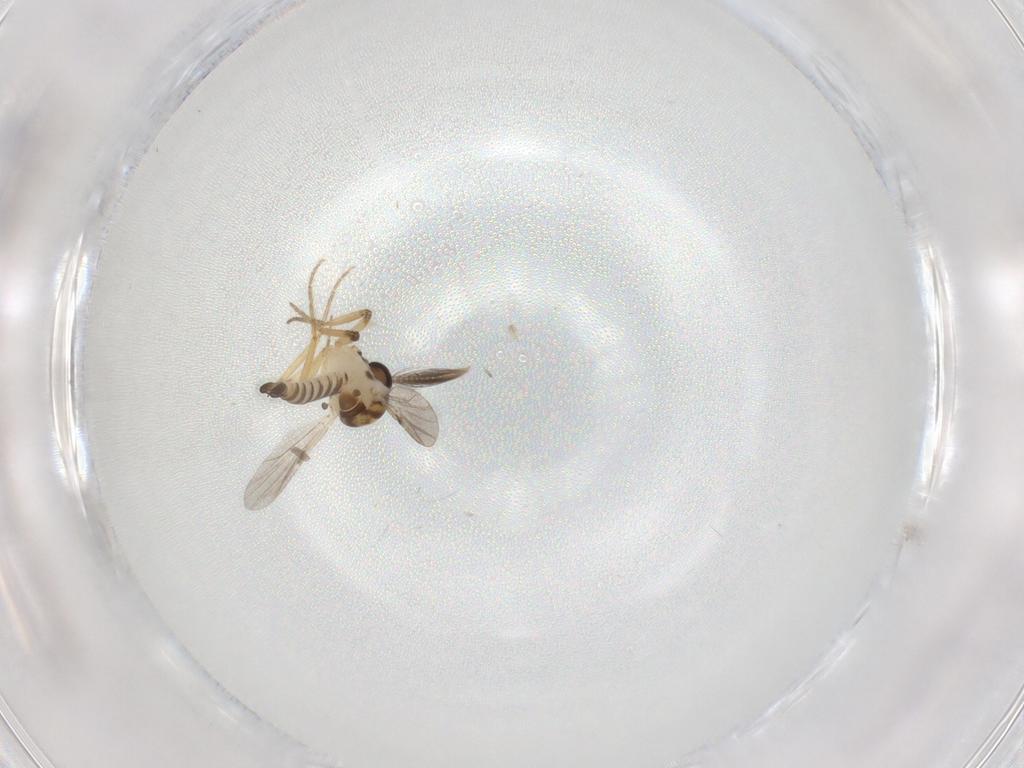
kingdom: Animalia
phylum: Arthropoda
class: Insecta
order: Diptera
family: Ceratopogonidae
